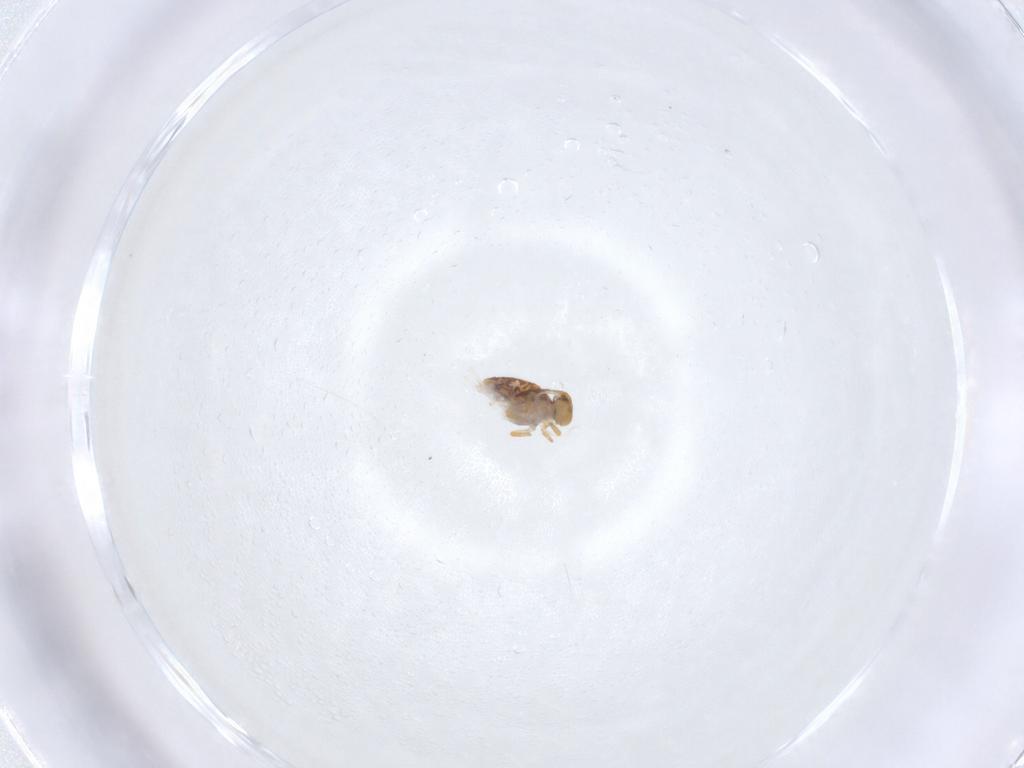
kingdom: Animalia
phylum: Arthropoda
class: Collembola
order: Symphypleona
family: Katiannidae
